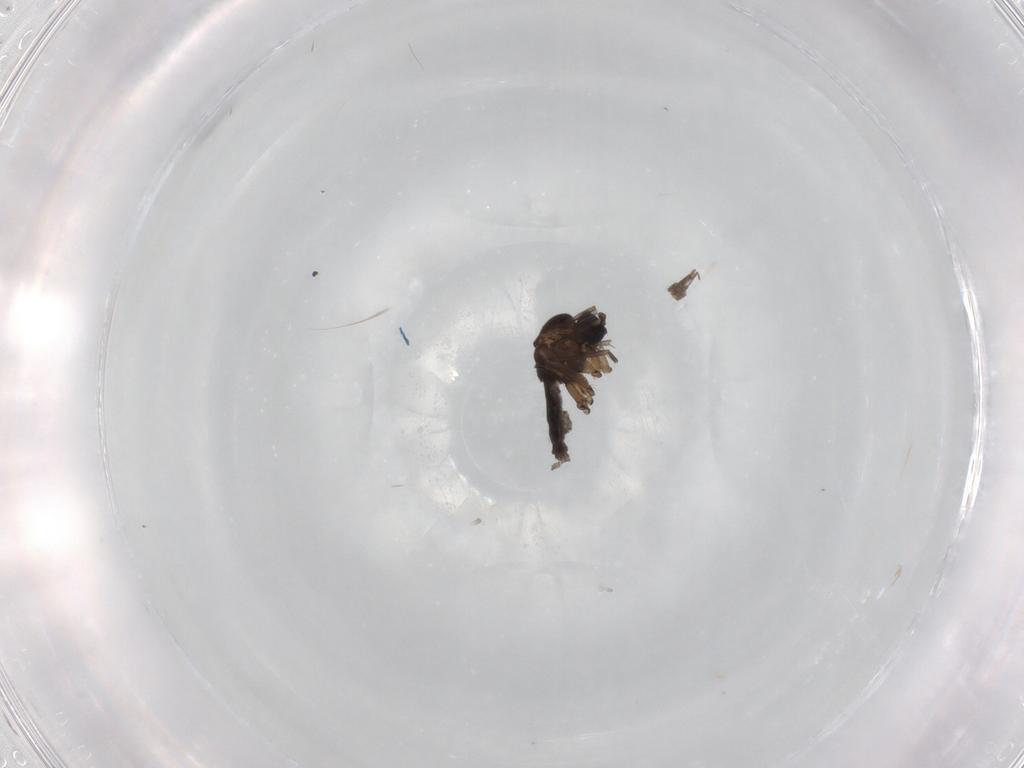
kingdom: Animalia
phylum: Arthropoda
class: Insecta
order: Diptera
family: Sciaridae
